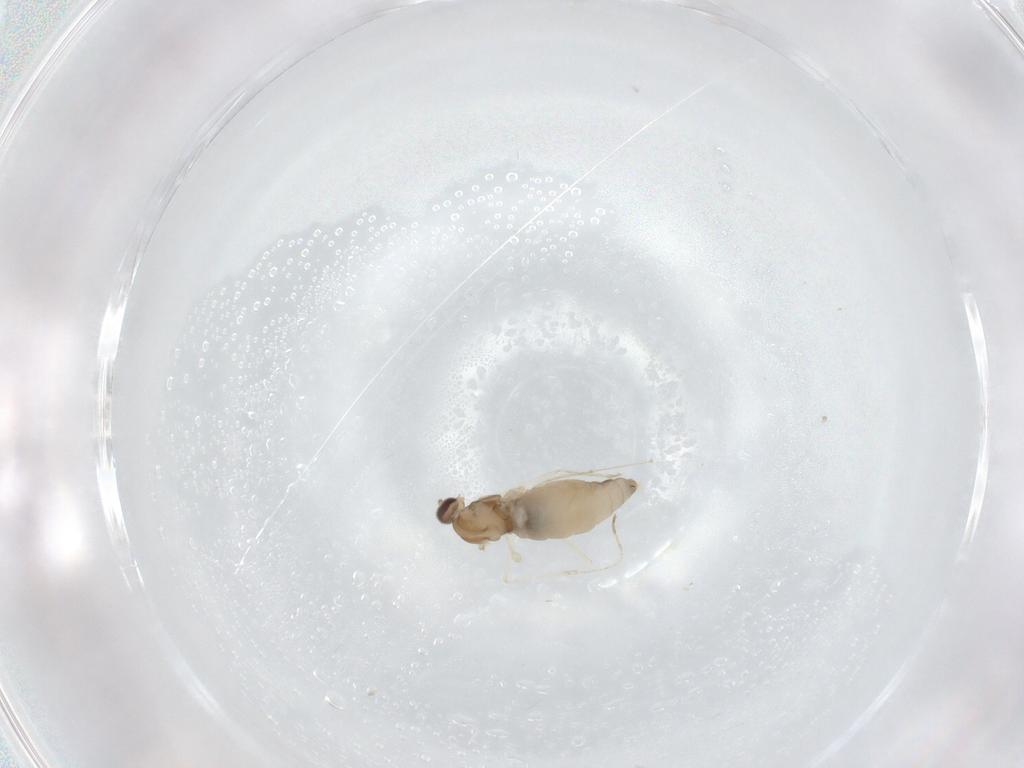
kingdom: Animalia
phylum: Arthropoda
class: Insecta
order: Diptera
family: Cecidomyiidae
